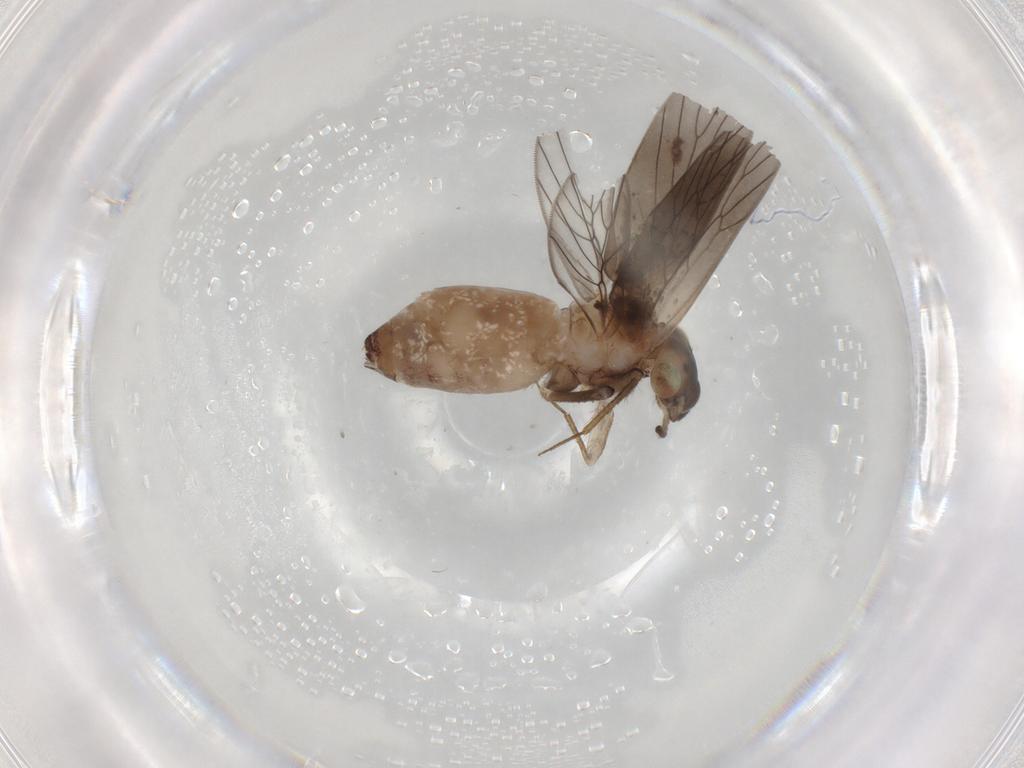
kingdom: Animalia
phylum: Arthropoda
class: Insecta
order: Psocodea
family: Lepidopsocidae
